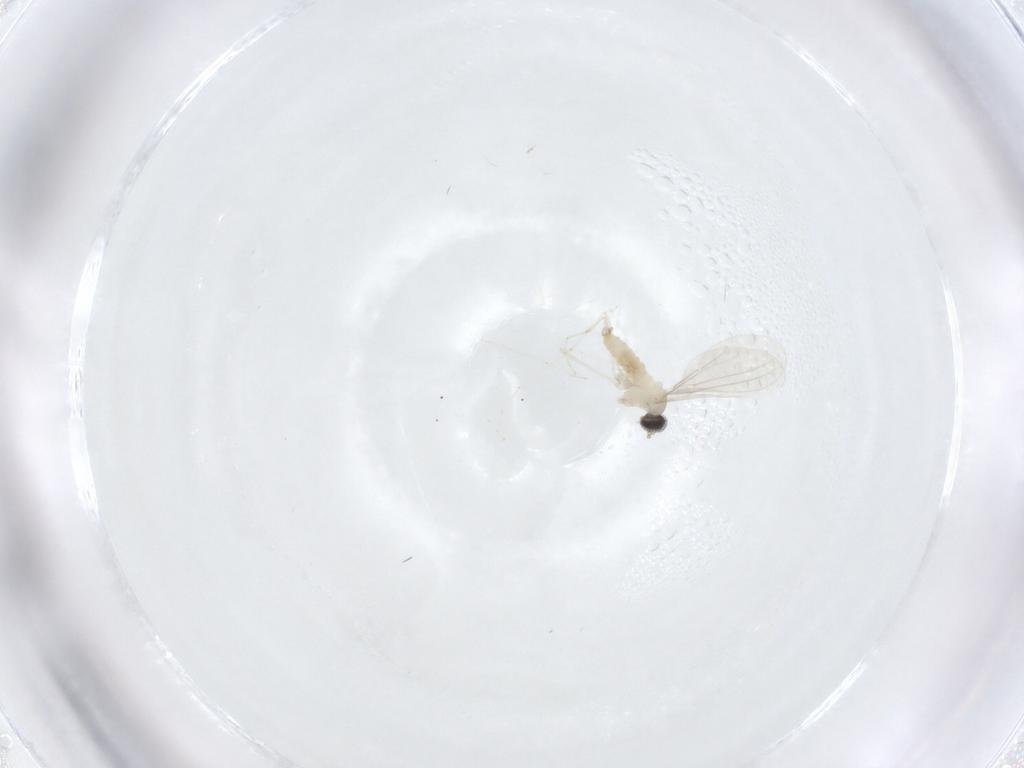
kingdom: Animalia
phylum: Arthropoda
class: Insecta
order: Diptera
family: Cecidomyiidae
